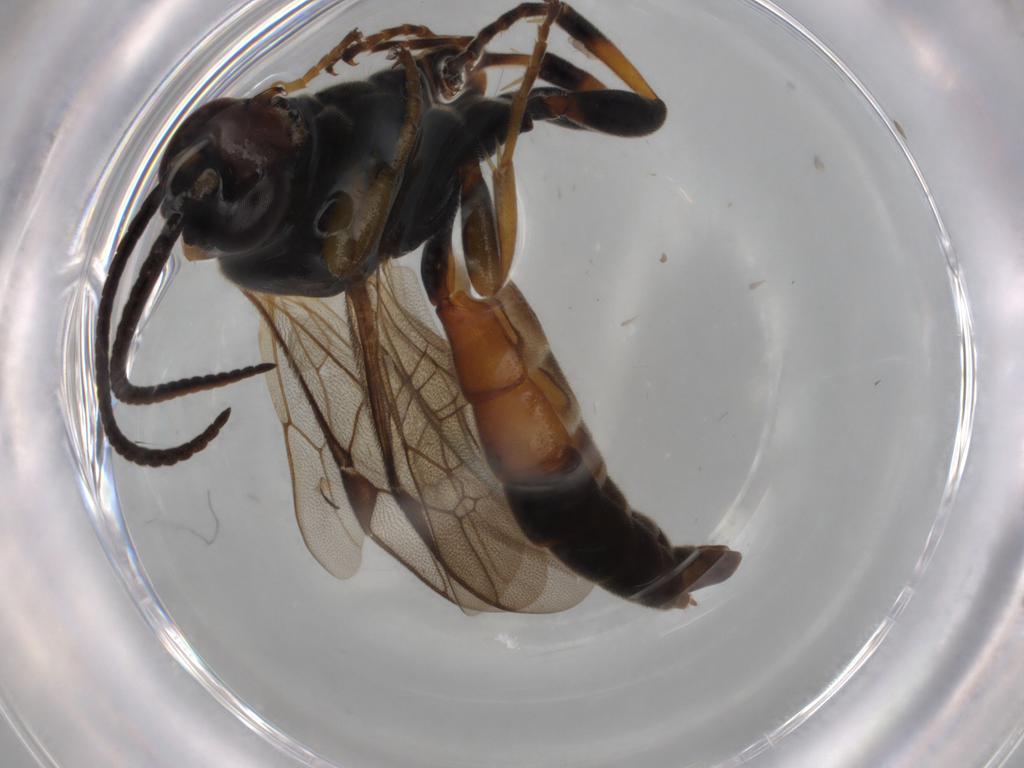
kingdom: Animalia
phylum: Arthropoda
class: Insecta
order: Hymenoptera
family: Ichneumonidae
